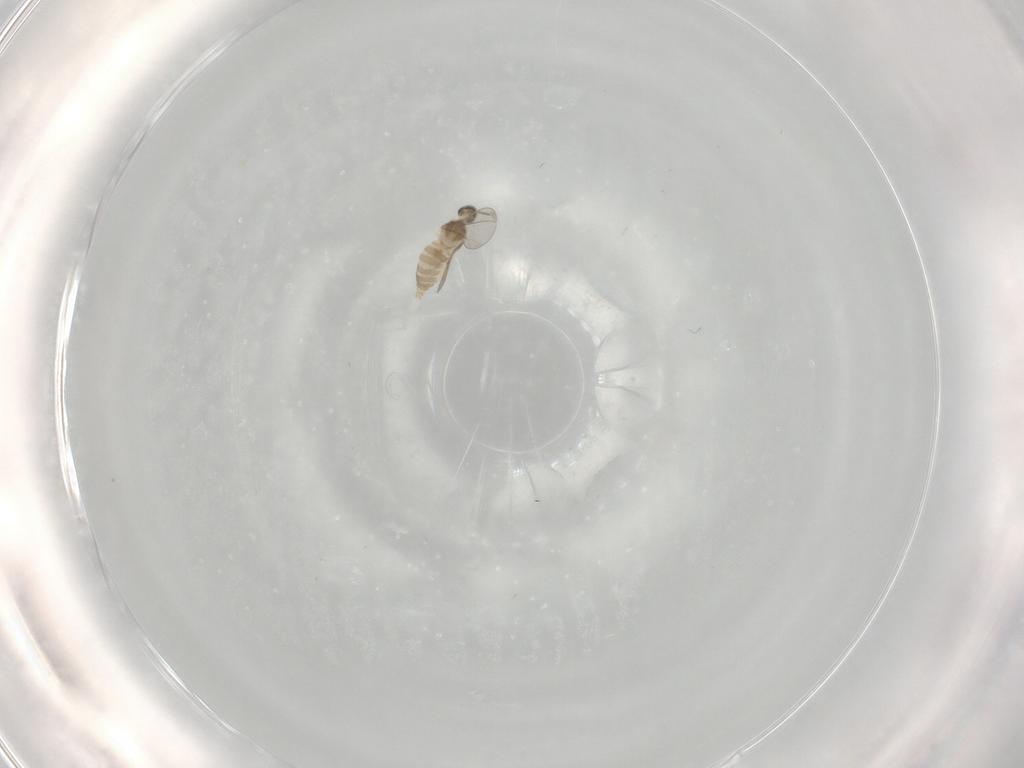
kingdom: Animalia
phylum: Arthropoda
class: Insecta
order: Diptera
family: Cecidomyiidae
